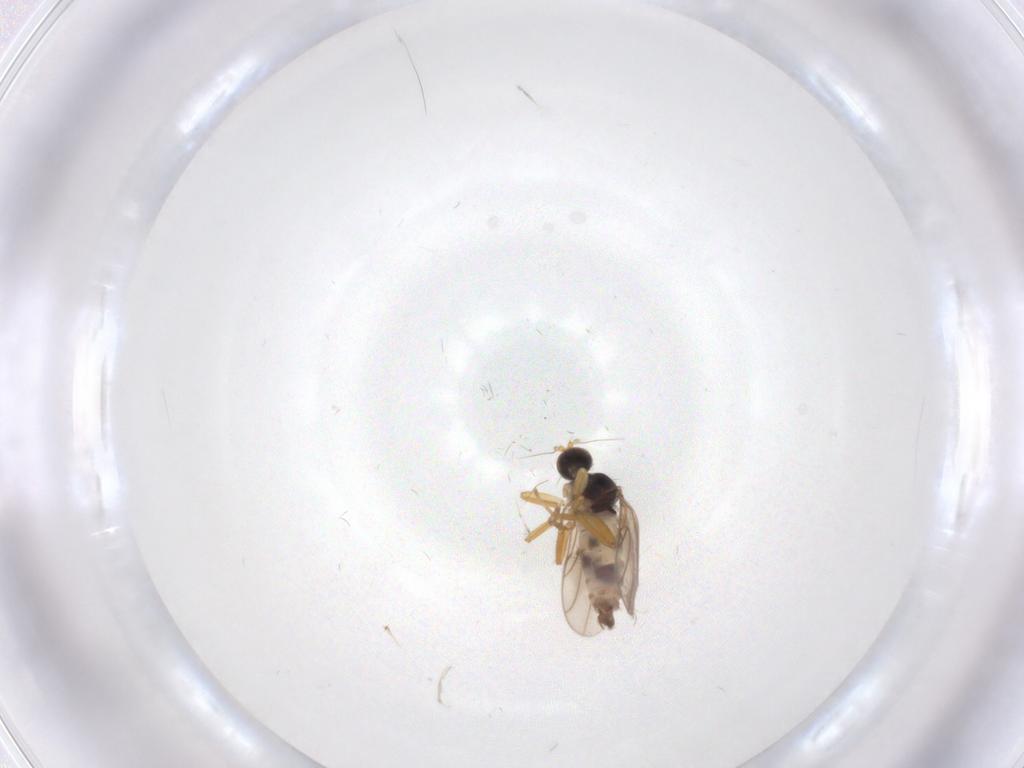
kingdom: Animalia
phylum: Arthropoda
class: Insecta
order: Diptera
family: Hybotidae
